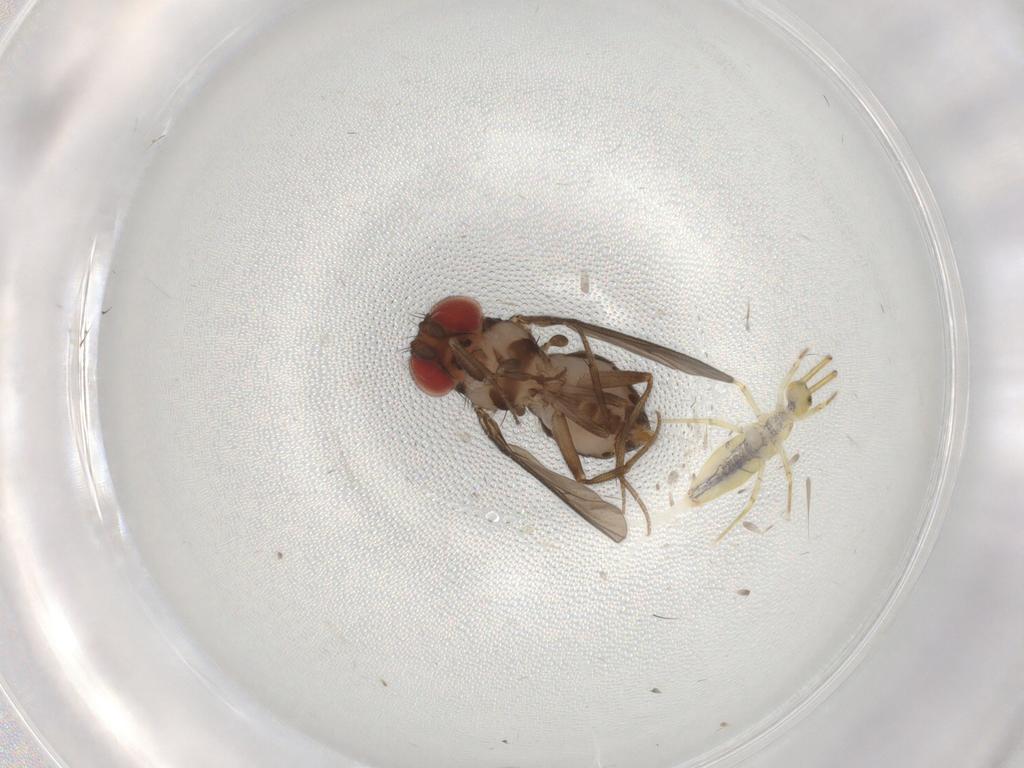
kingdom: Animalia
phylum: Arthropoda
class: Insecta
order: Diptera
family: Drosophilidae
